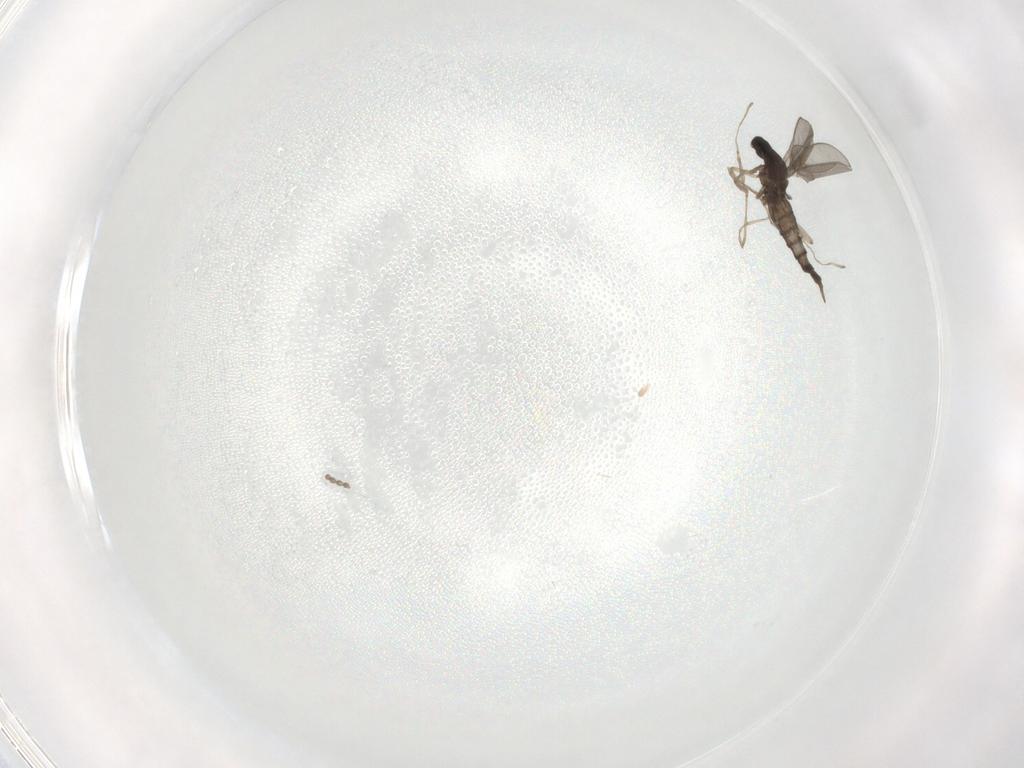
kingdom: Animalia
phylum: Arthropoda
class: Insecta
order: Diptera
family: Cecidomyiidae
